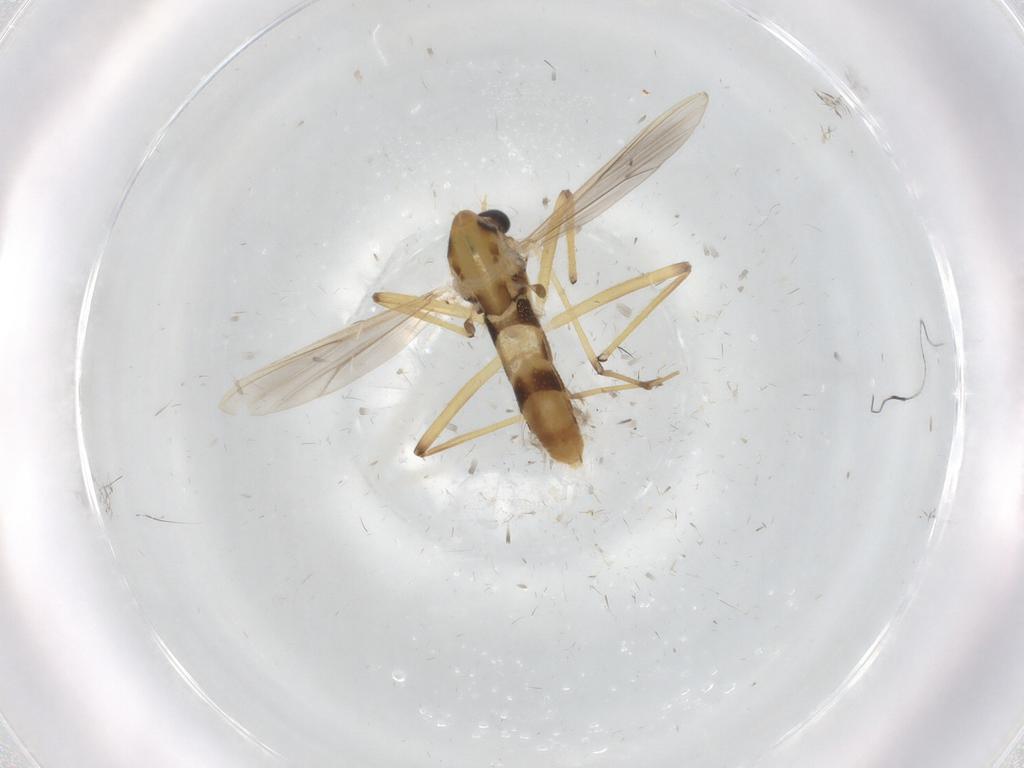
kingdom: Animalia
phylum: Arthropoda
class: Insecta
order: Diptera
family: Chironomidae
